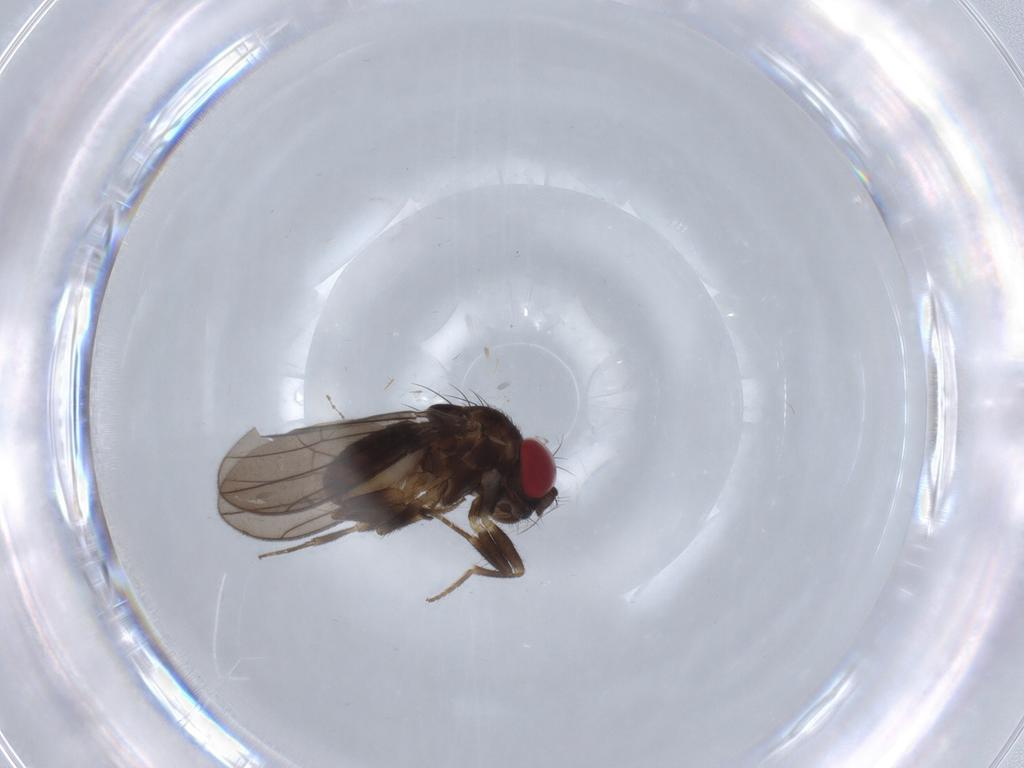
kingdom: Animalia
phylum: Arthropoda
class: Insecta
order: Diptera
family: Drosophilidae
